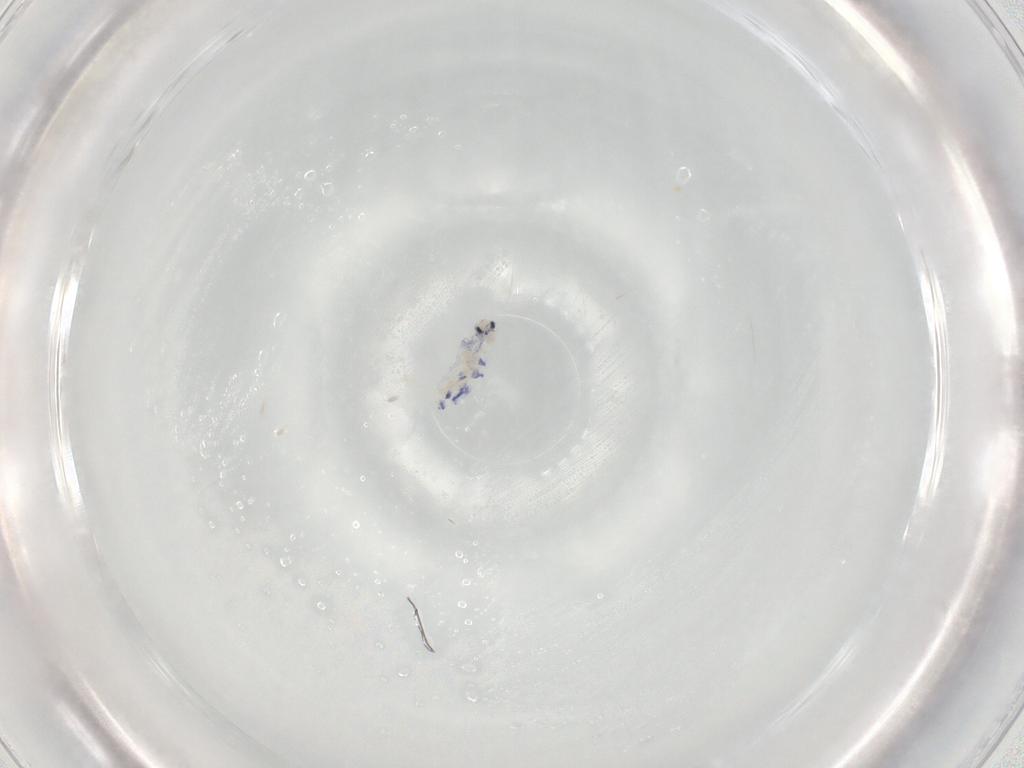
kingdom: Animalia
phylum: Arthropoda
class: Collembola
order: Entomobryomorpha
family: Entomobryidae
